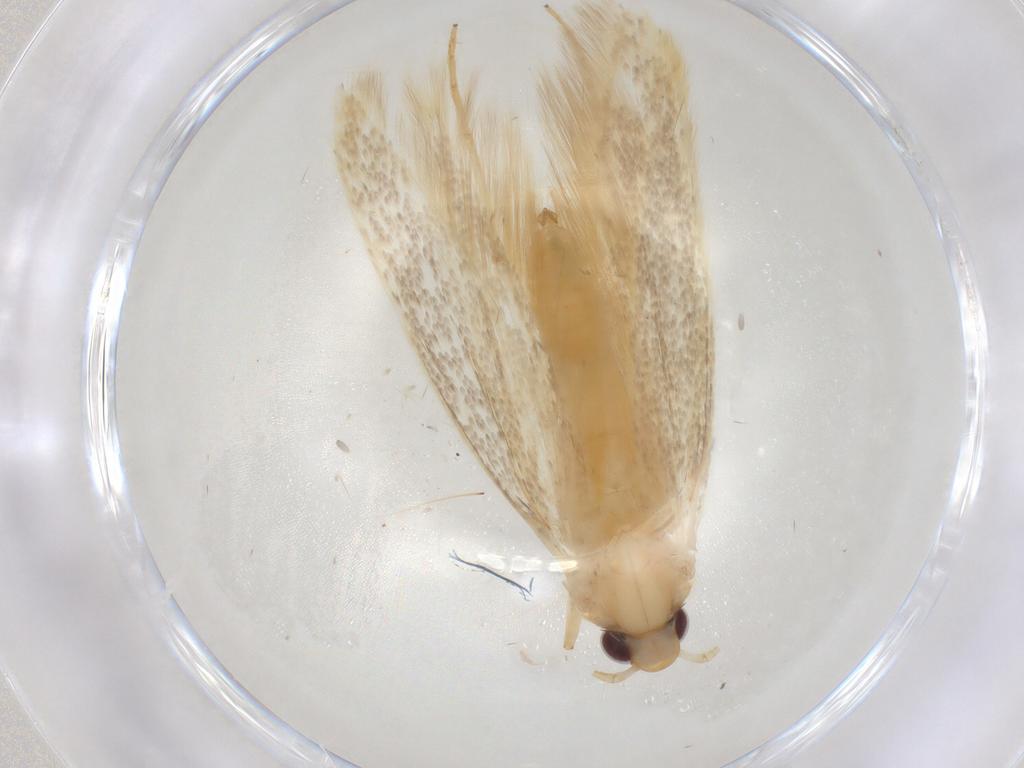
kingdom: Animalia
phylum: Arthropoda
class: Insecta
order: Lepidoptera
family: Gelechiidae
